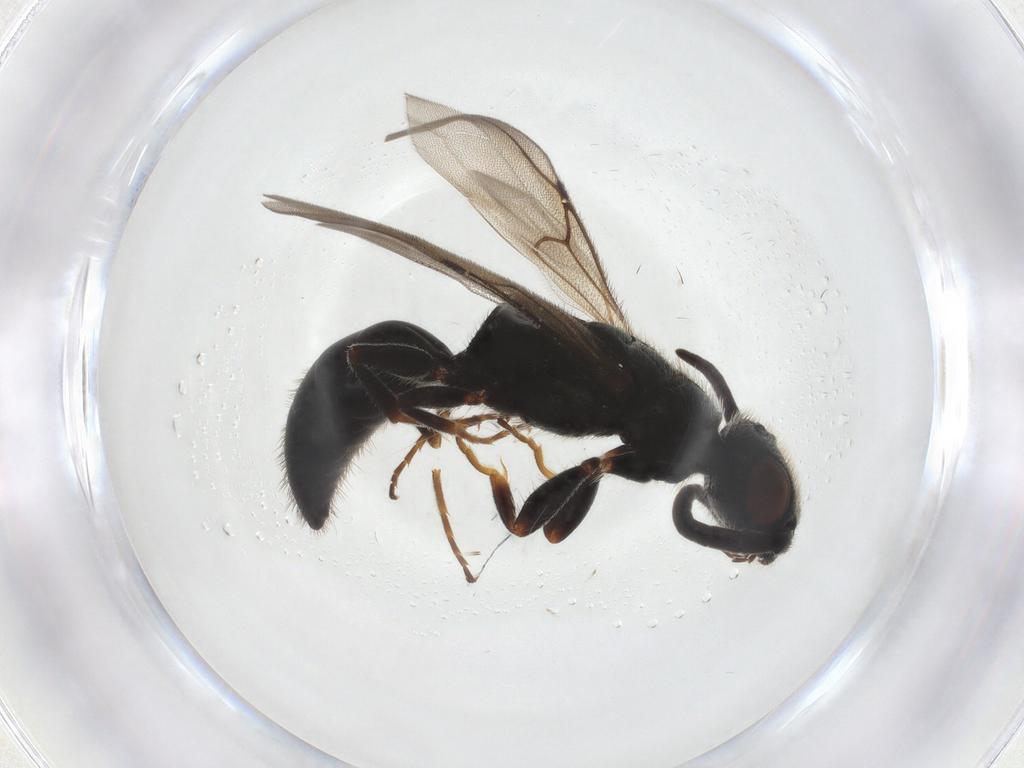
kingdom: Animalia
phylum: Arthropoda
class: Insecta
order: Hymenoptera
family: Bethylidae
